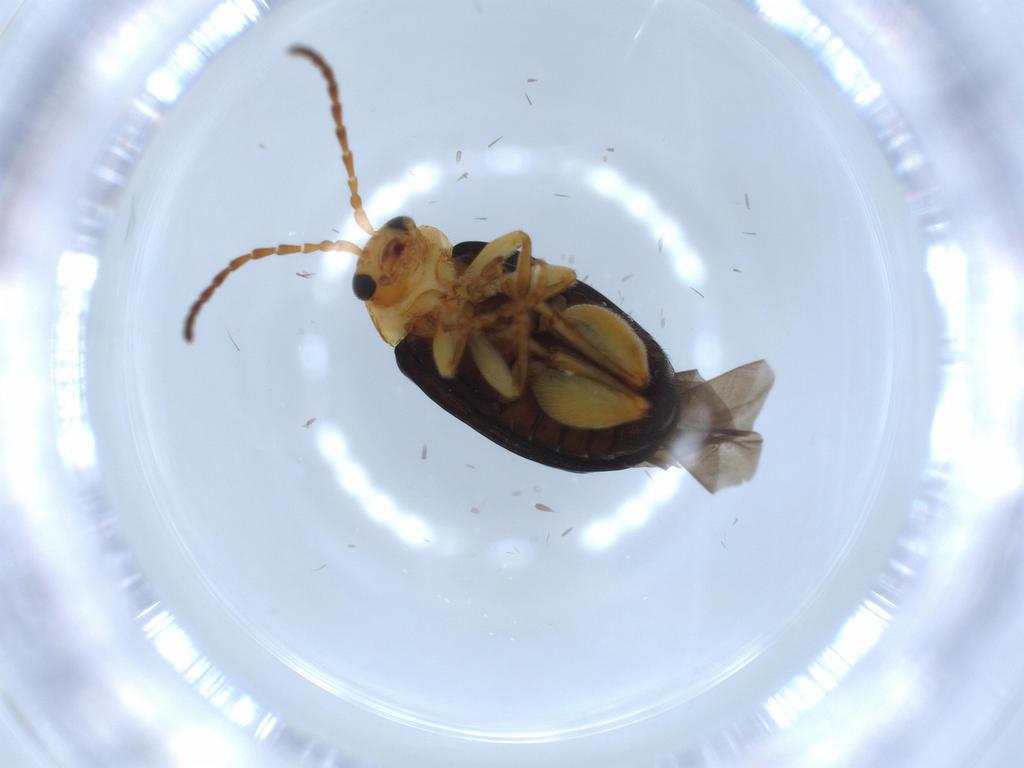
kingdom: Animalia
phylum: Arthropoda
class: Insecta
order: Coleoptera
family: Chrysomelidae
